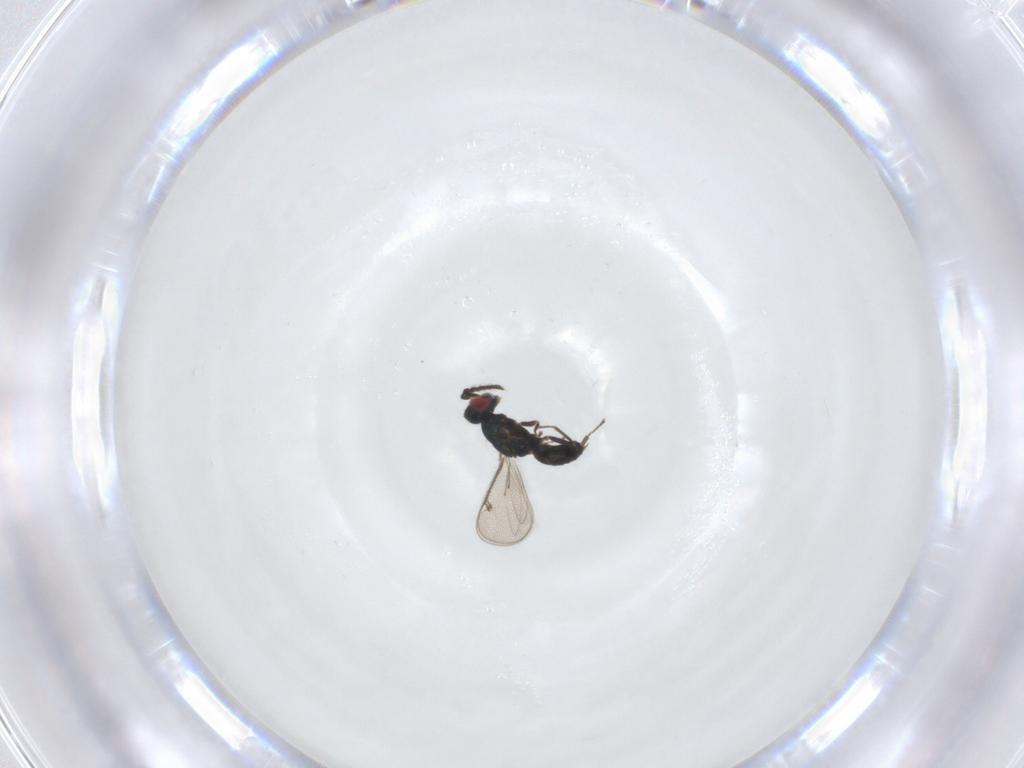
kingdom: Animalia
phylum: Arthropoda
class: Insecta
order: Hymenoptera
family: Eulophidae
